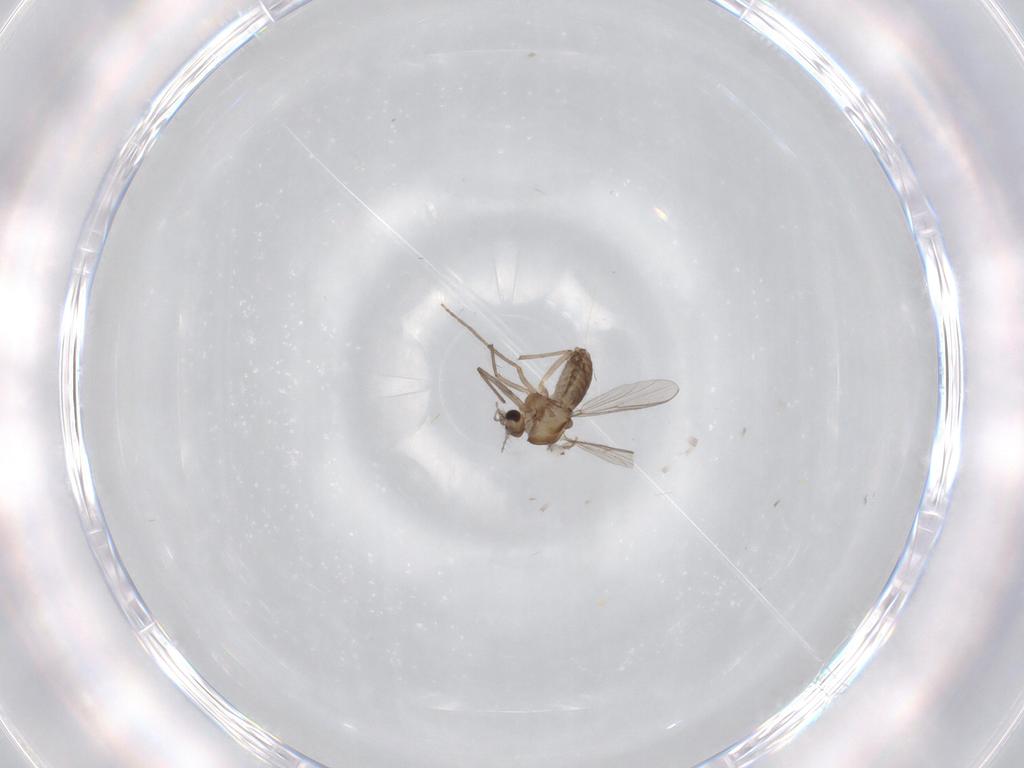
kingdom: Animalia
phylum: Arthropoda
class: Insecta
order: Diptera
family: Chironomidae
